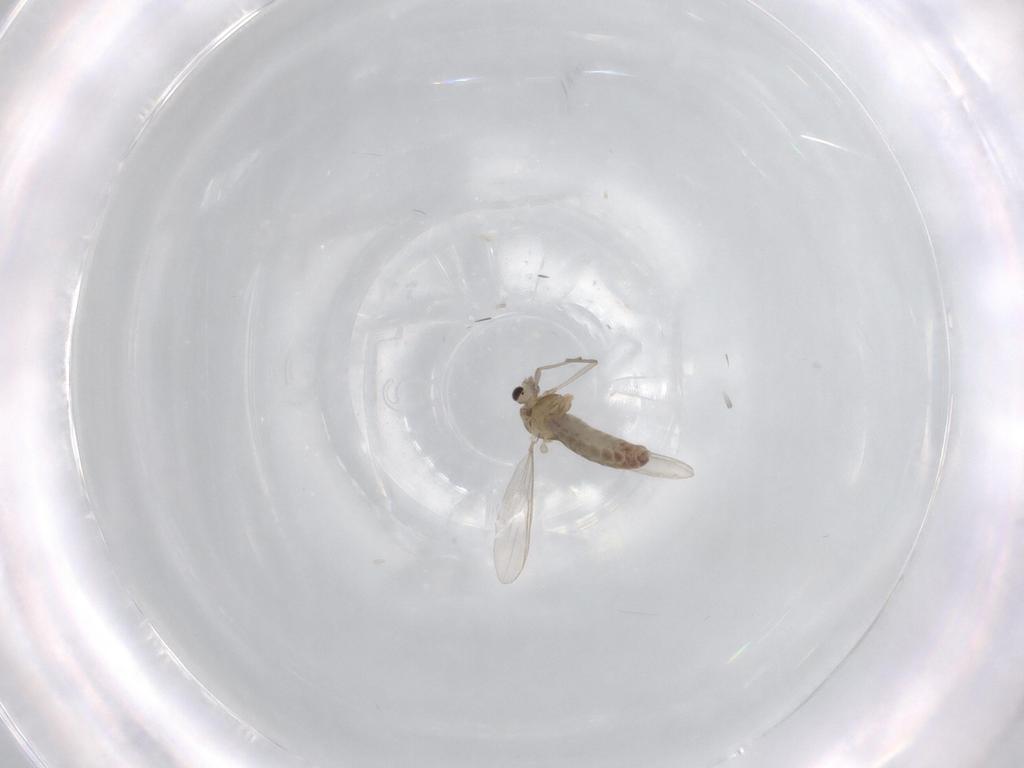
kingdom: Animalia
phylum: Arthropoda
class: Insecta
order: Diptera
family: Chironomidae
